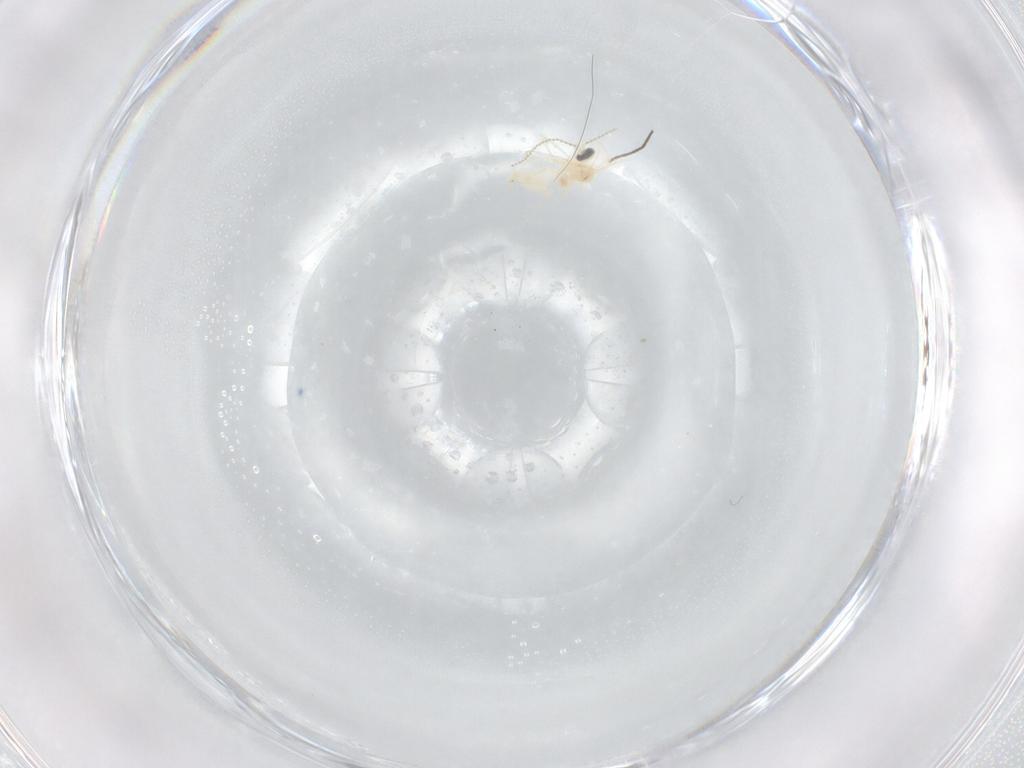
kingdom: Animalia
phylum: Arthropoda
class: Insecta
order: Diptera
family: Cecidomyiidae
